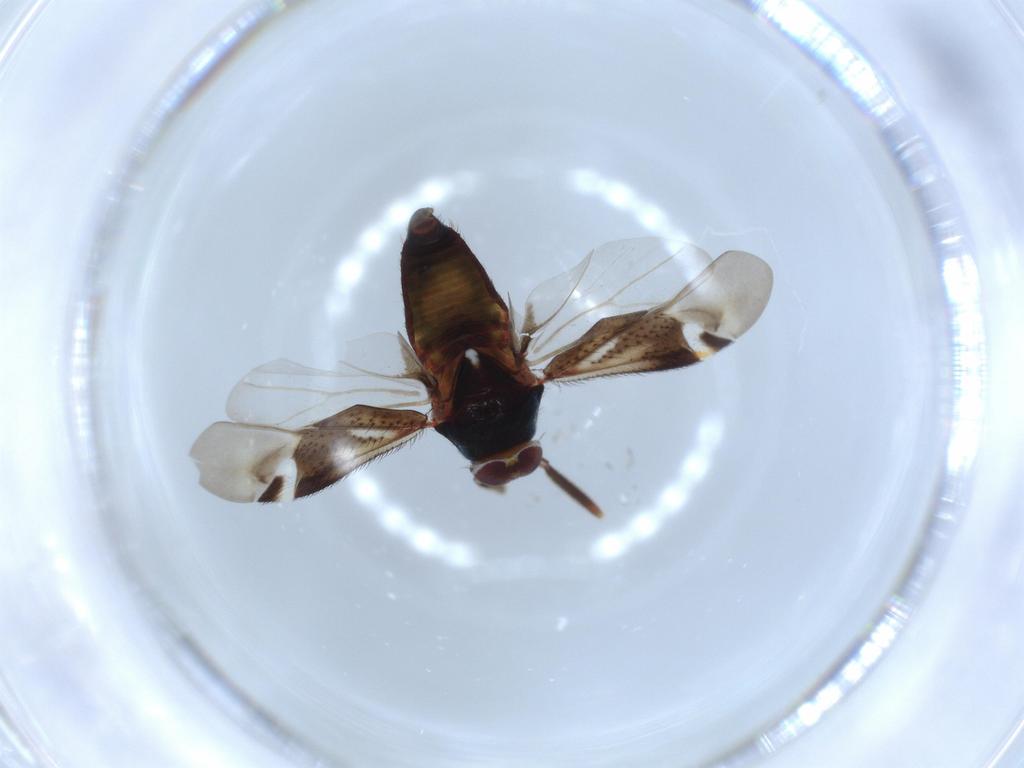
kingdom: Animalia
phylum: Arthropoda
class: Insecta
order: Hemiptera
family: Miridae
